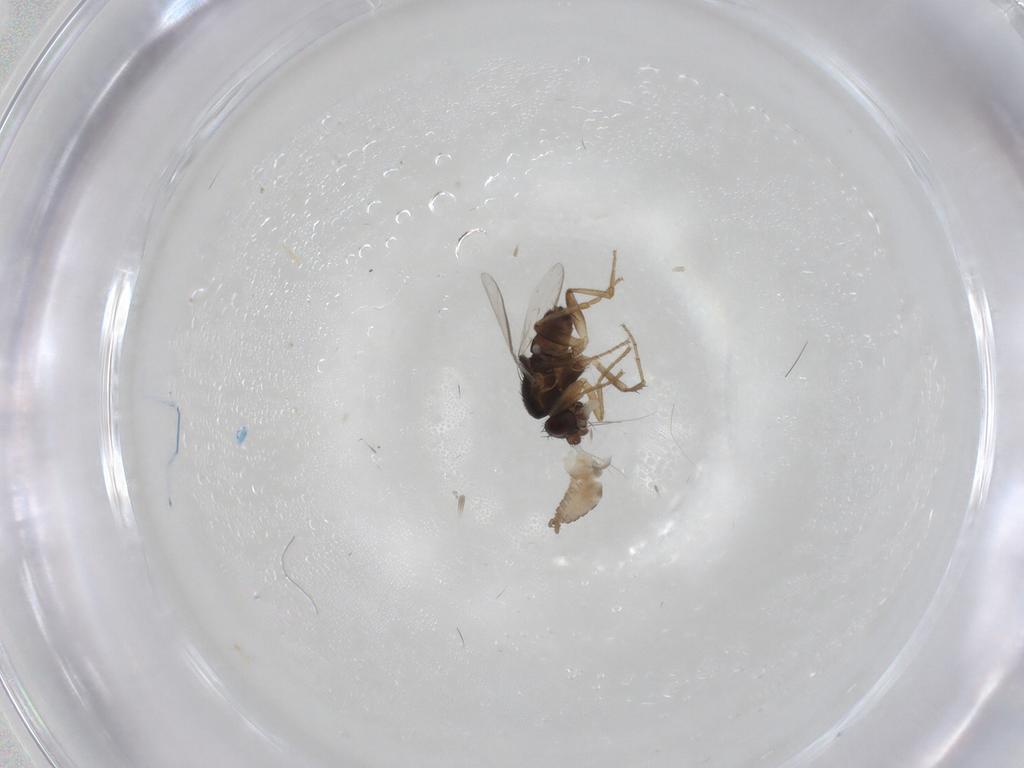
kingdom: Animalia
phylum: Arthropoda
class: Insecta
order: Diptera
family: Sphaeroceridae
